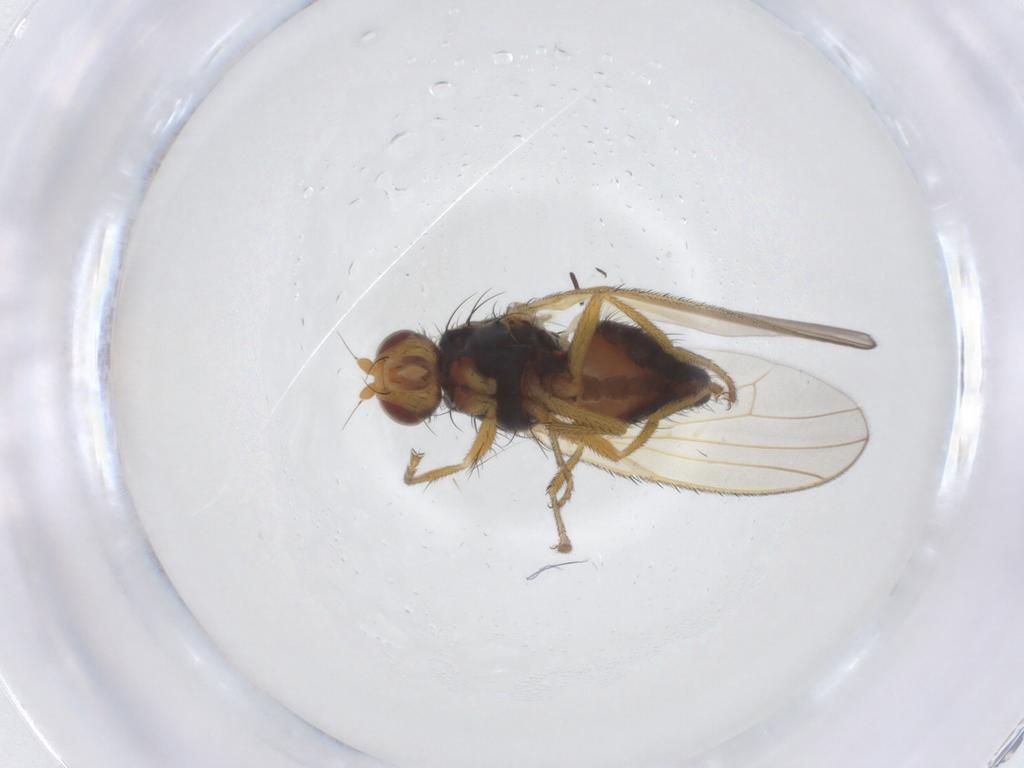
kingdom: Animalia
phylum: Arthropoda
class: Insecta
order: Diptera
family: Heleomyzidae
